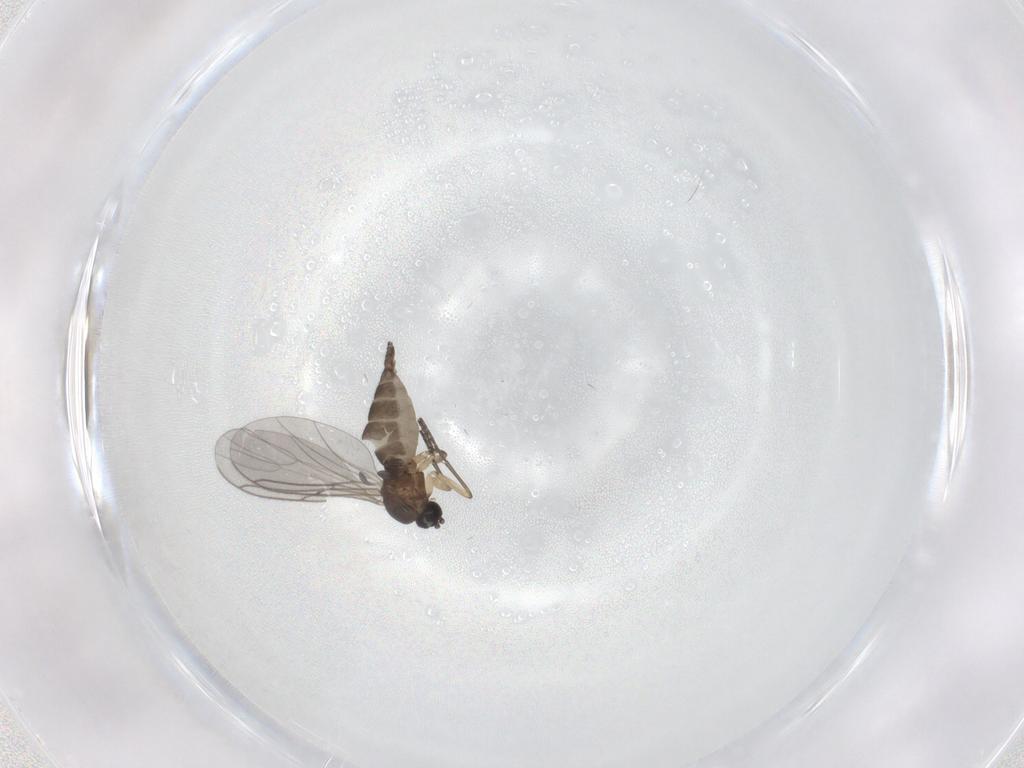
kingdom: Animalia
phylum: Arthropoda
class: Insecta
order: Diptera
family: Sciaridae
